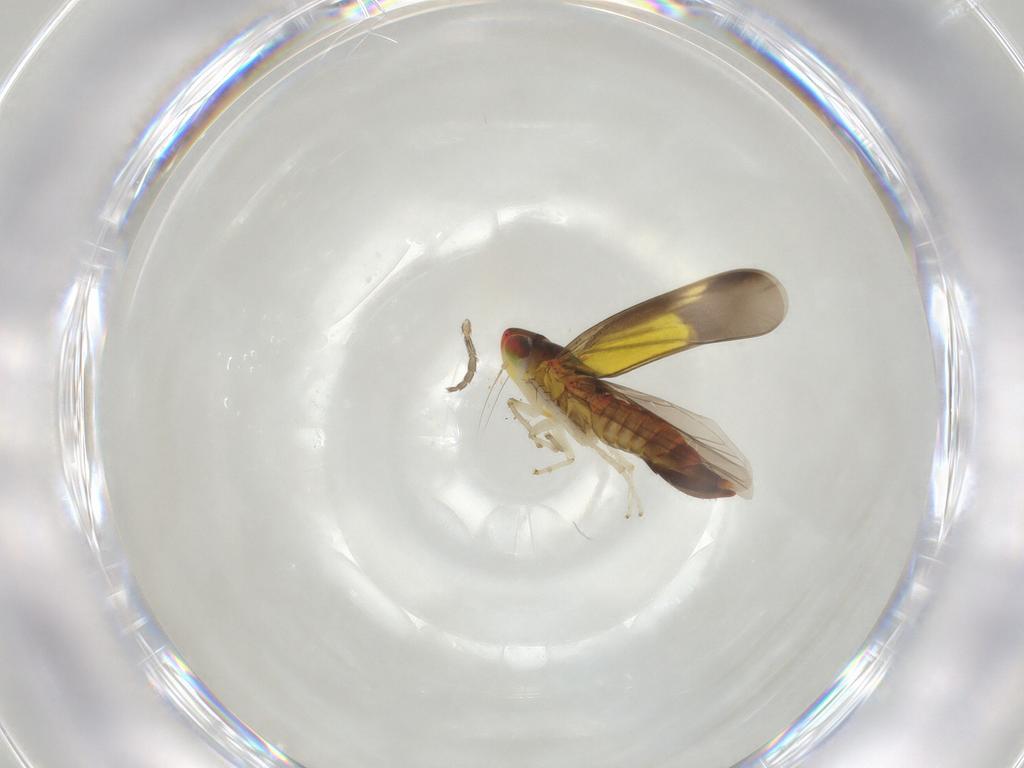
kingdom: Animalia
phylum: Arthropoda
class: Insecta
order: Hemiptera
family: Cicadellidae
